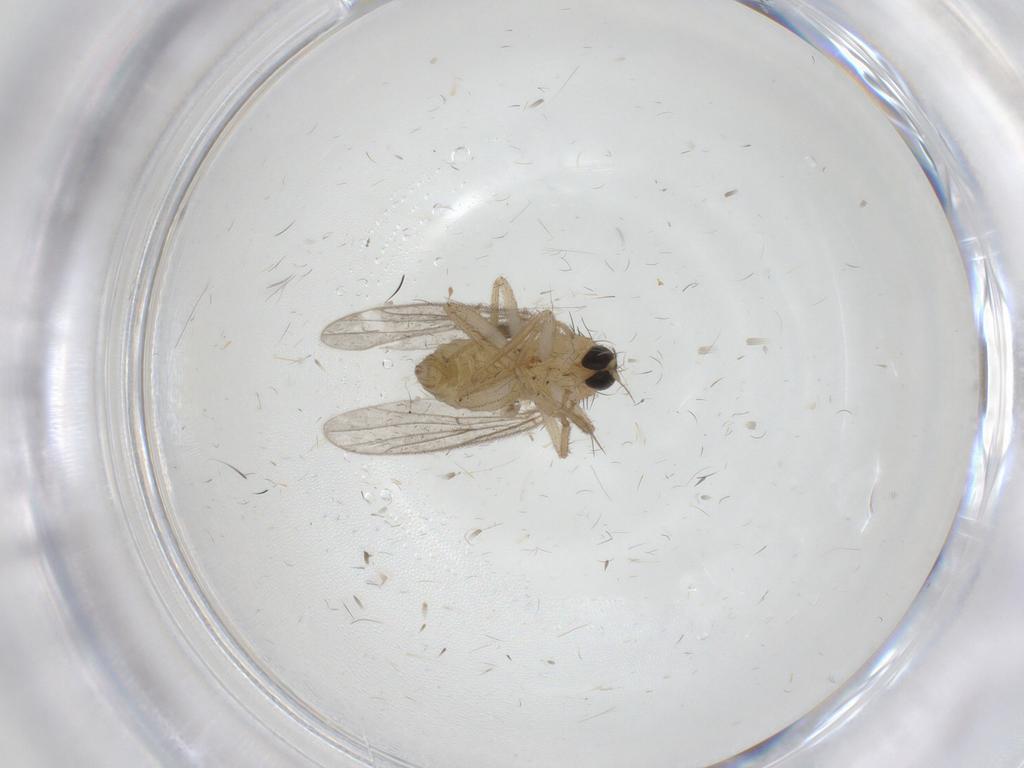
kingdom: Animalia
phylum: Arthropoda
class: Insecta
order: Diptera
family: Hybotidae
